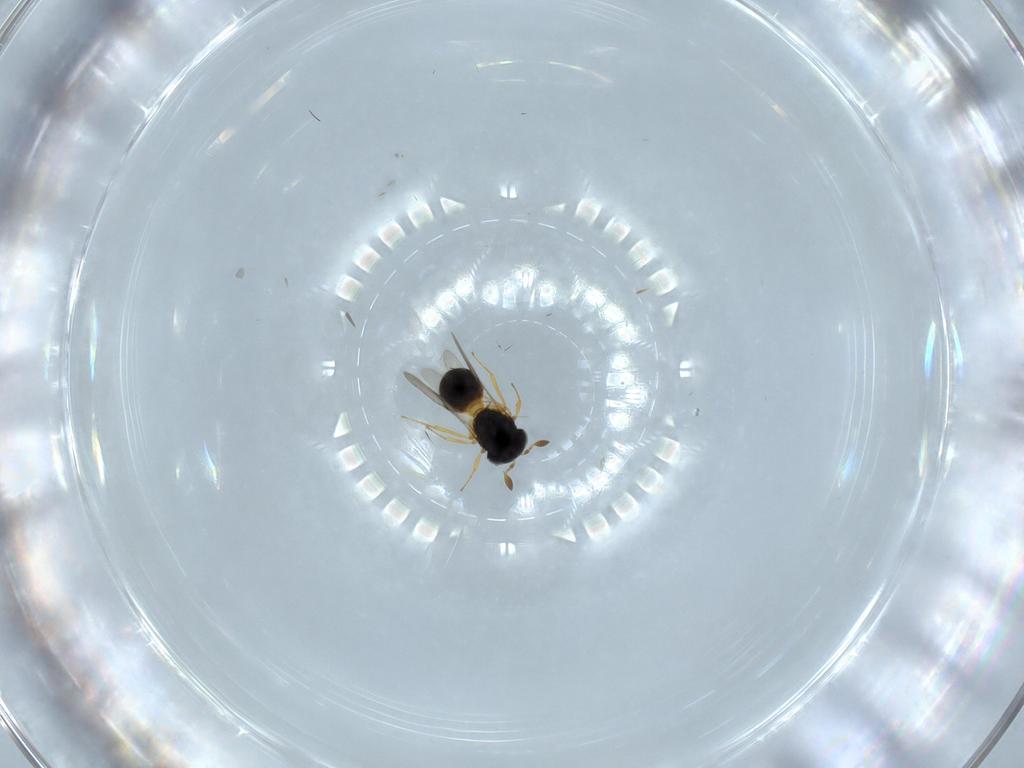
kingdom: Animalia
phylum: Arthropoda
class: Insecta
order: Hymenoptera
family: Scelionidae
